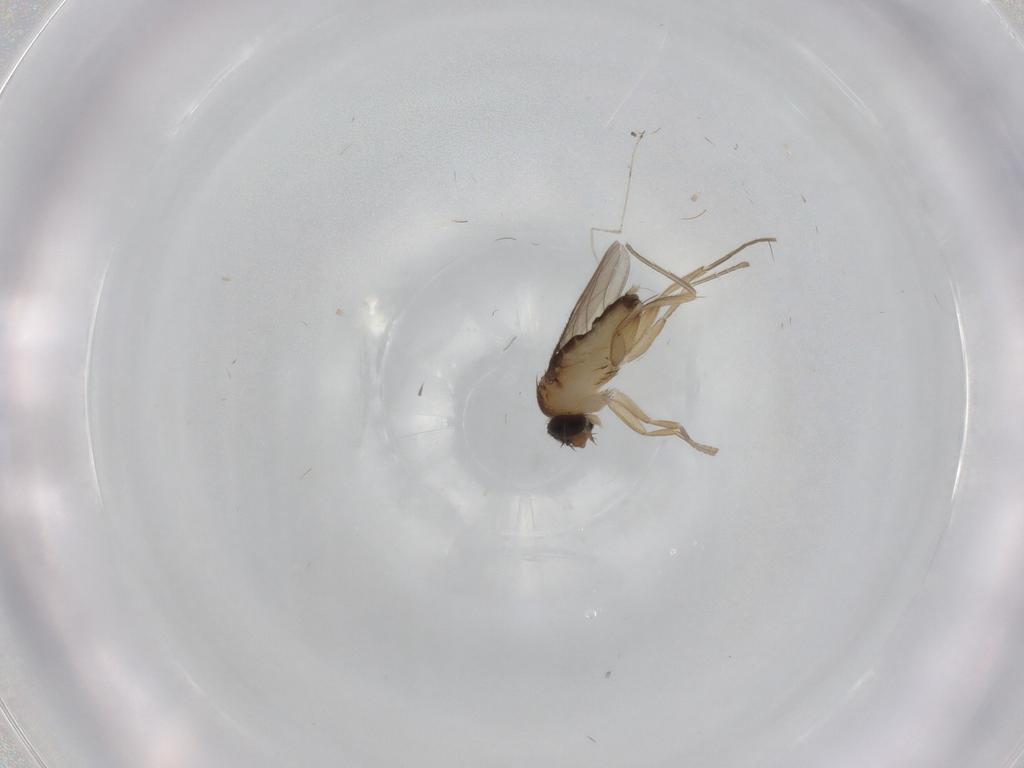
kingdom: Animalia
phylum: Arthropoda
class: Insecta
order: Diptera
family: Phoridae
